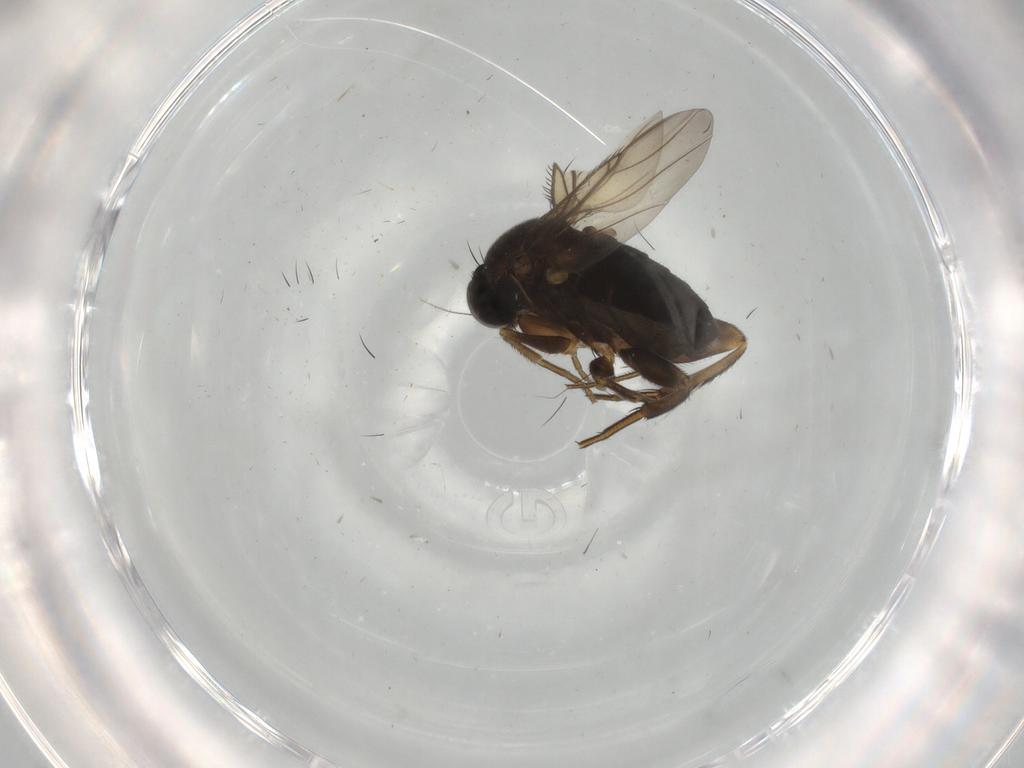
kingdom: Animalia
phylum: Arthropoda
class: Insecta
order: Diptera
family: Phoridae
